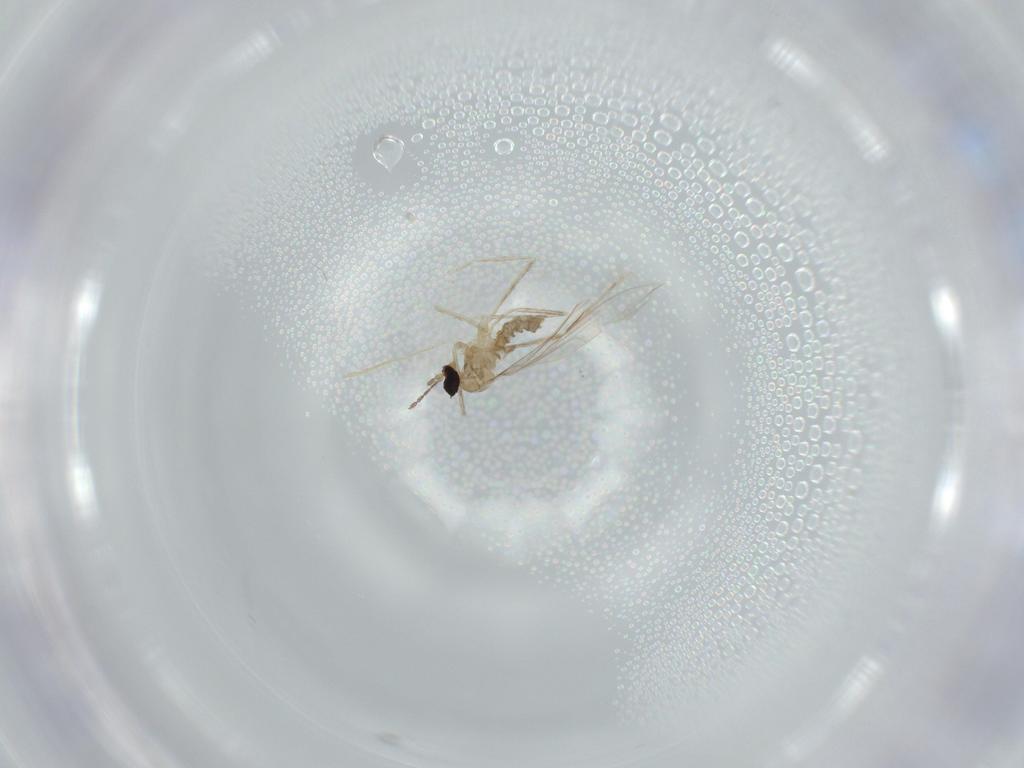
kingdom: Animalia
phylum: Arthropoda
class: Insecta
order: Diptera
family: Cecidomyiidae
